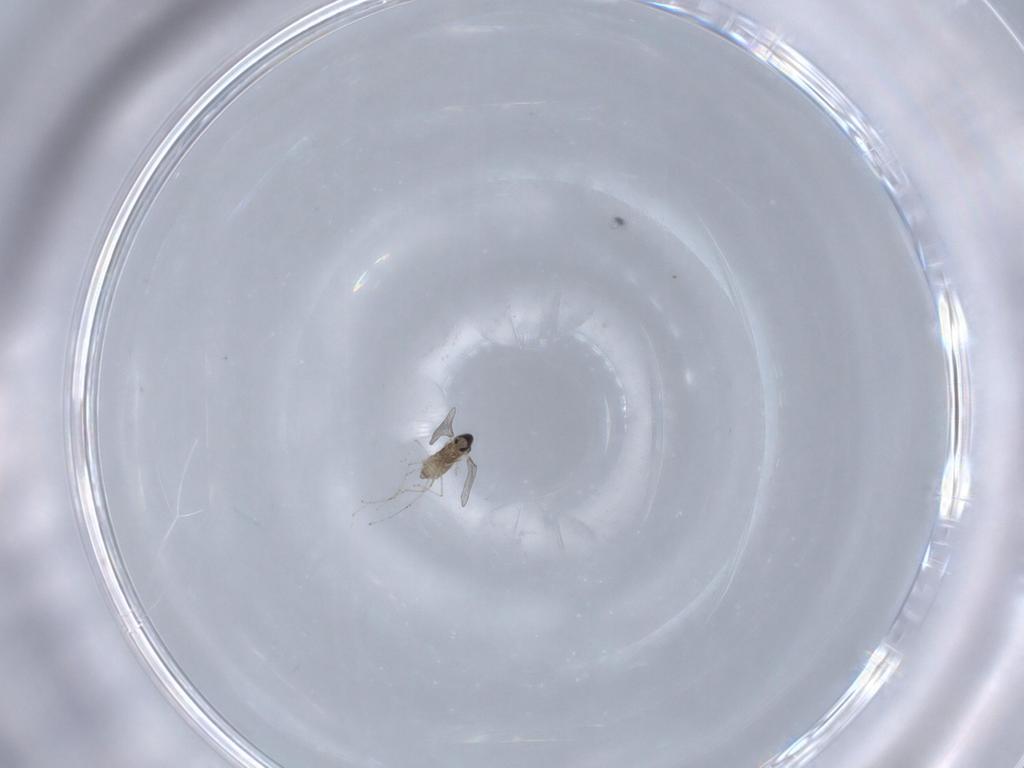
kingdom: Animalia
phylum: Arthropoda
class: Insecta
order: Diptera
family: Cecidomyiidae
